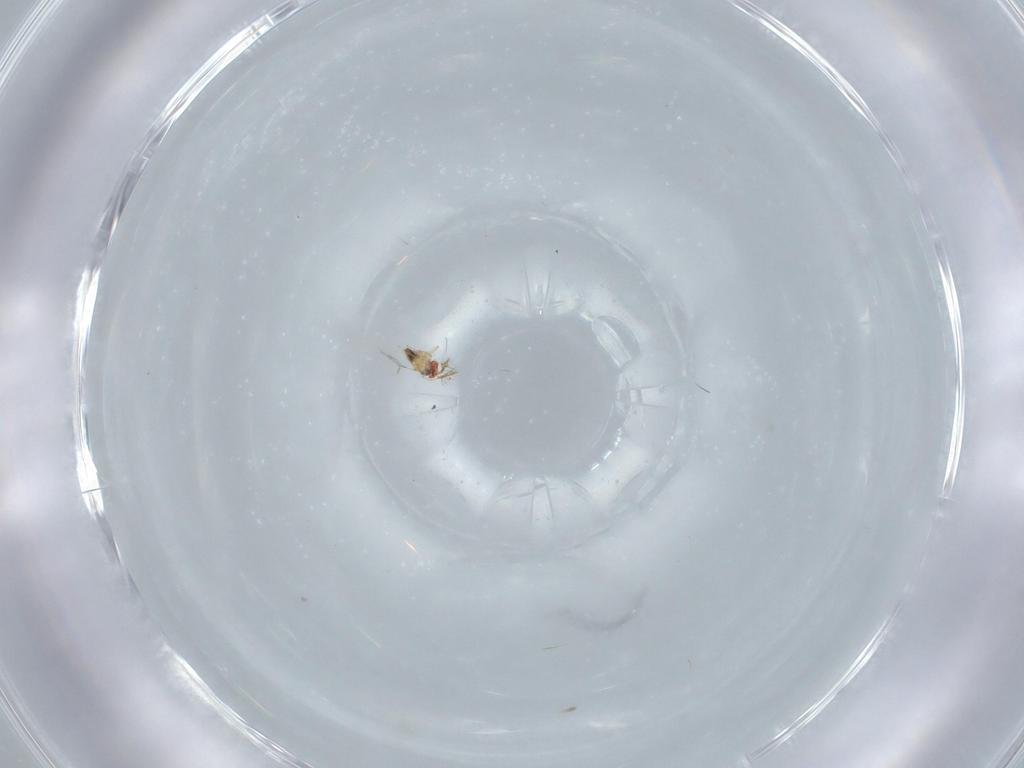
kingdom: Animalia
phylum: Arthropoda
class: Insecta
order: Hymenoptera
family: Trichogrammatidae
